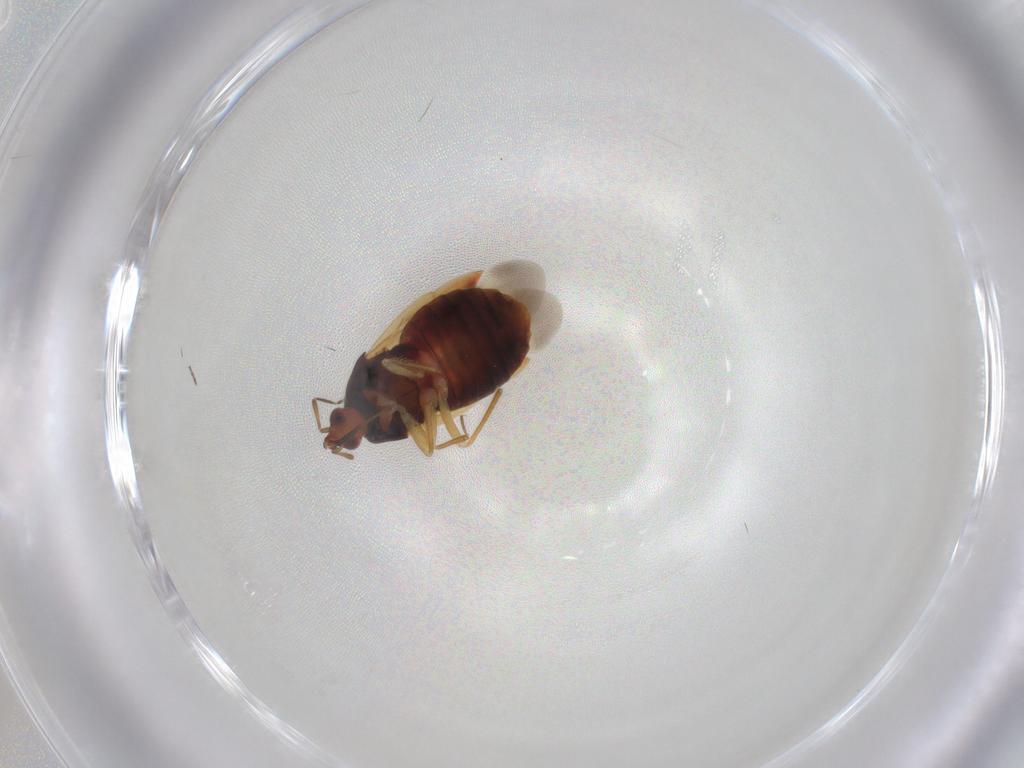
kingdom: Animalia
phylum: Arthropoda
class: Insecta
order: Hemiptera
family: Anthocoridae
